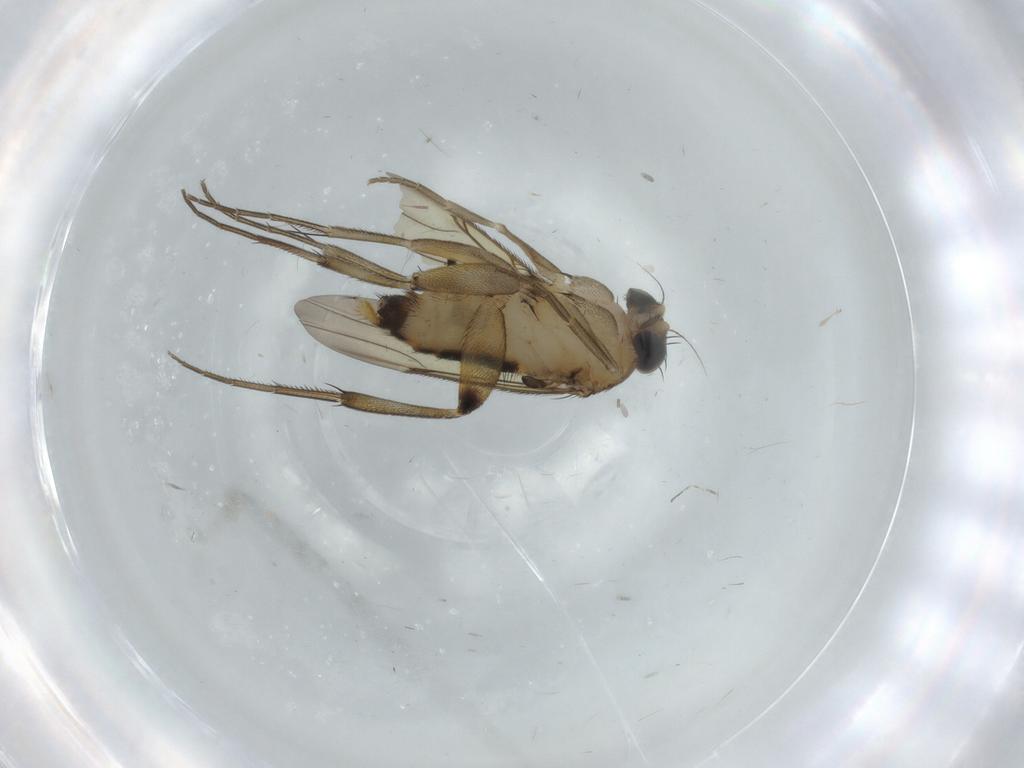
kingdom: Animalia
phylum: Arthropoda
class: Insecta
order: Diptera
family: Phoridae
